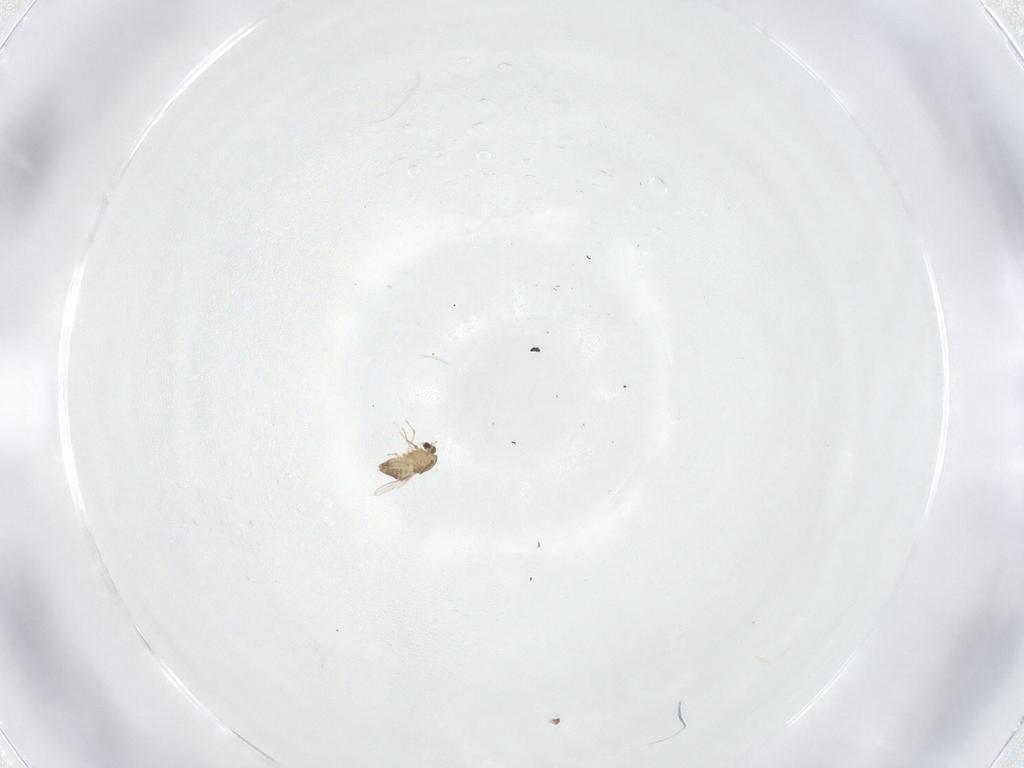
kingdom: Animalia
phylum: Arthropoda
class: Insecta
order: Diptera
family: Chironomidae
